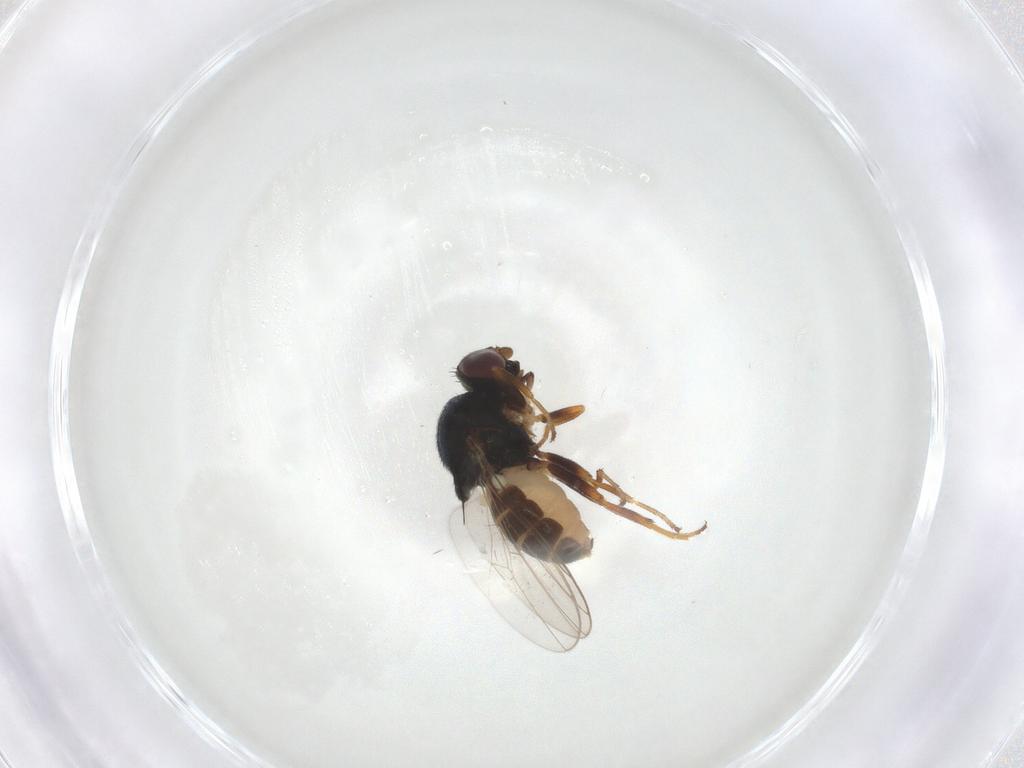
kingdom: Animalia
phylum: Arthropoda
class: Insecta
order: Diptera
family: Chloropidae
